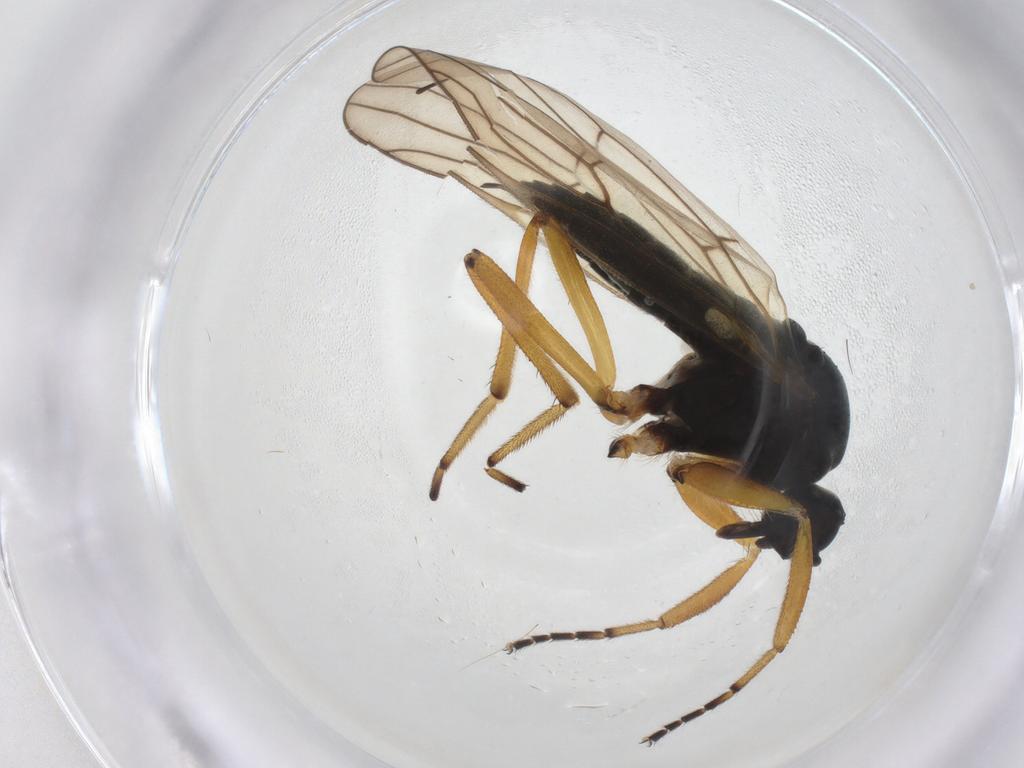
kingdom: Animalia
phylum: Arthropoda
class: Insecta
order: Diptera
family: Hybotidae
